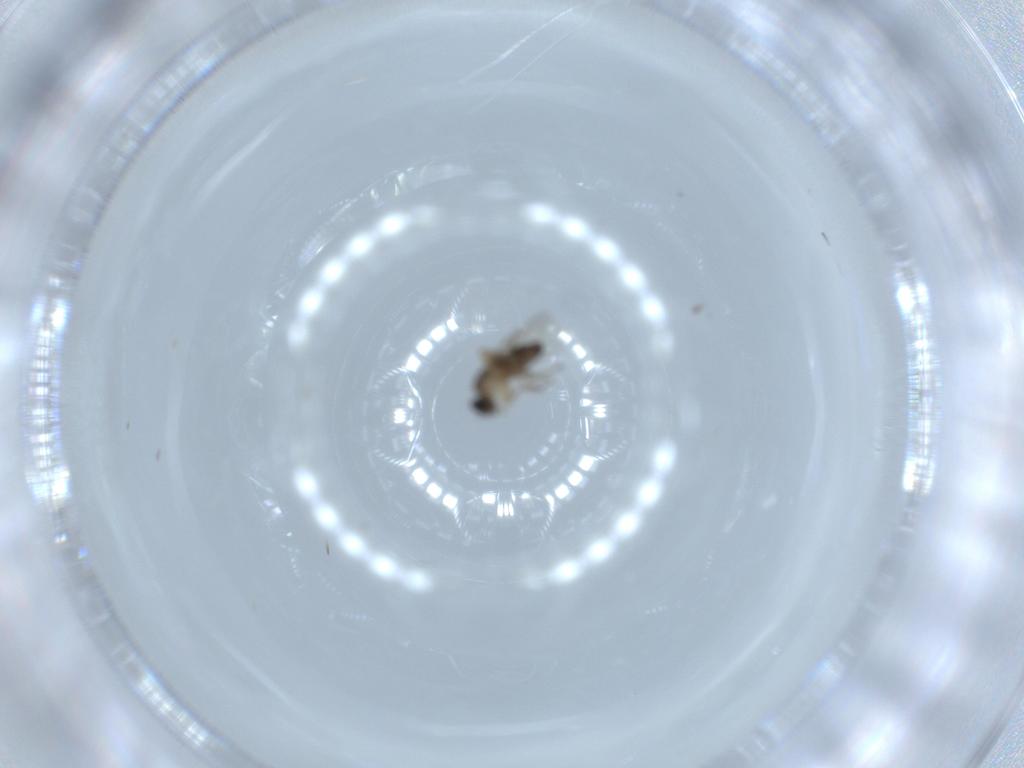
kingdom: Animalia
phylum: Arthropoda
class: Insecta
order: Diptera
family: Phoridae
